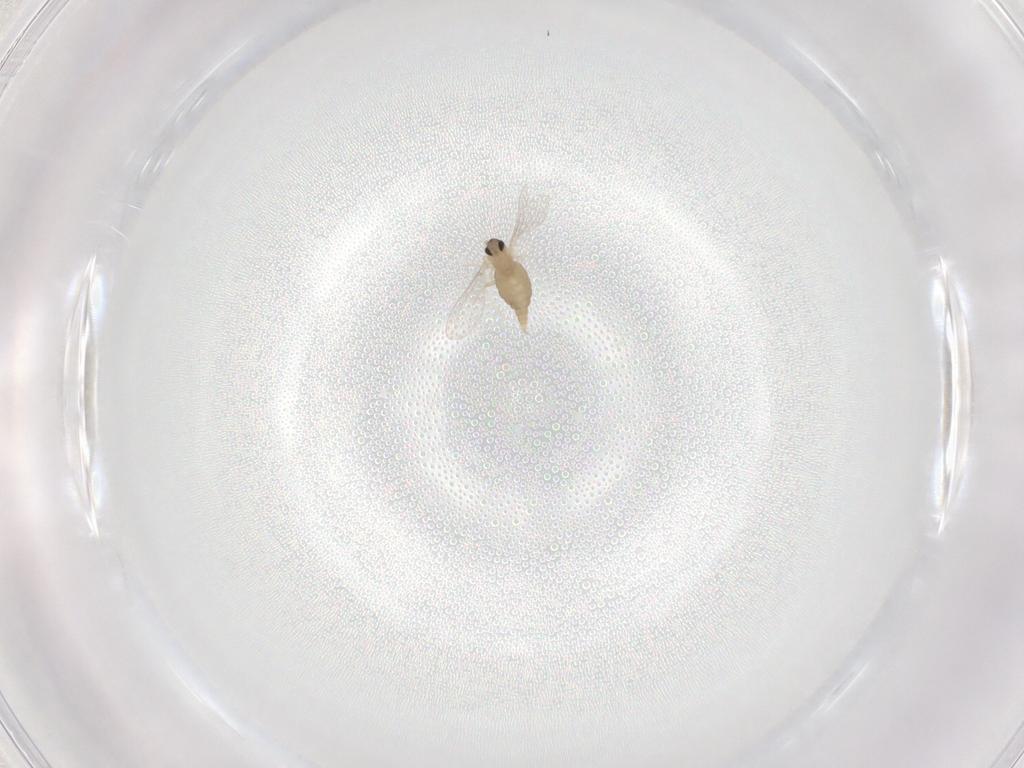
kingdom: Animalia
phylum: Arthropoda
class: Insecta
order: Diptera
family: Cecidomyiidae
